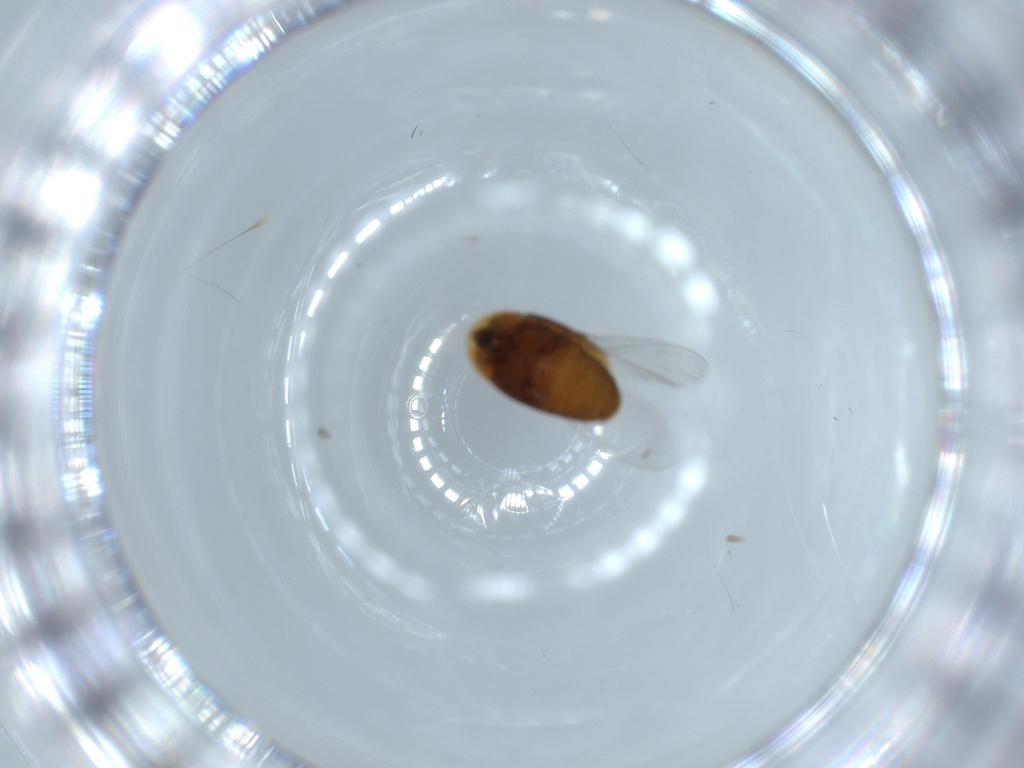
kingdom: Animalia
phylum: Arthropoda
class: Insecta
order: Coleoptera
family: Corylophidae
